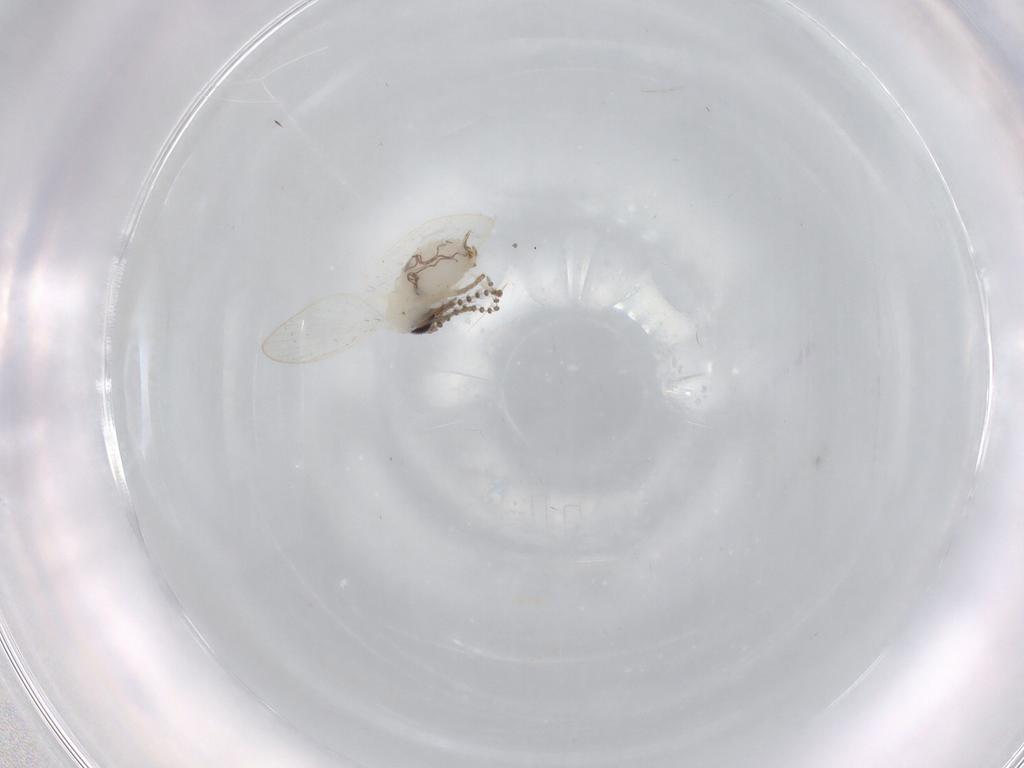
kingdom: Animalia
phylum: Arthropoda
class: Insecta
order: Diptera
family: Psychodidae
